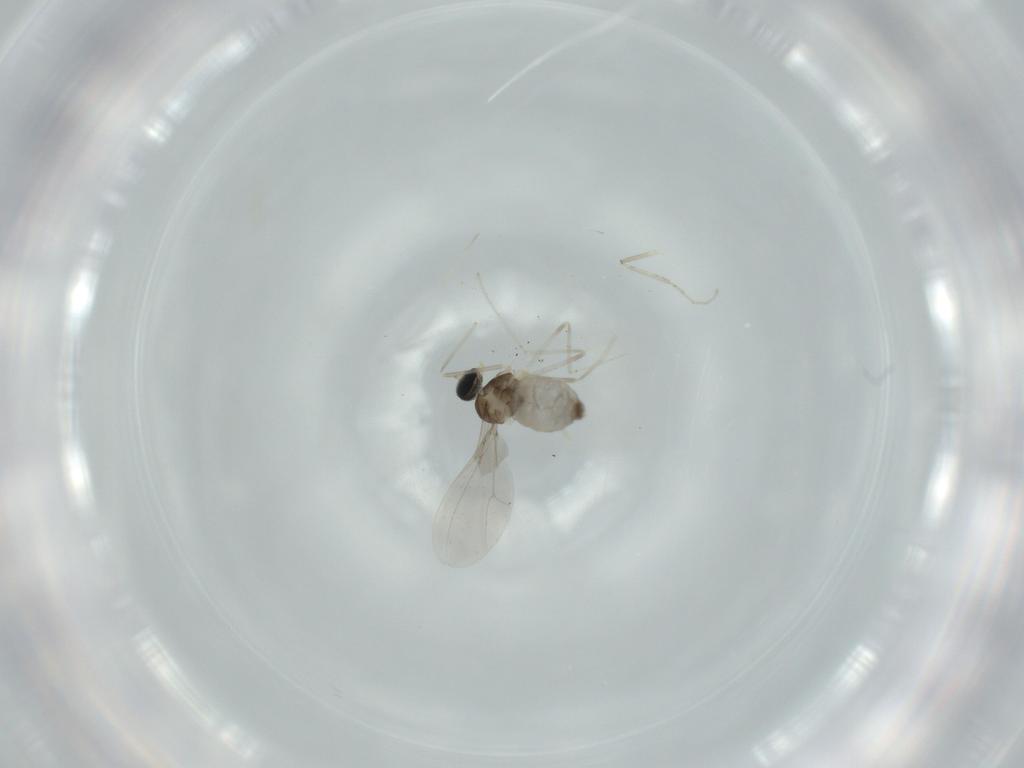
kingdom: Animalia
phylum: Arthropoda
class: Insecta
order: Diptera
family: Cecidomyiidae
